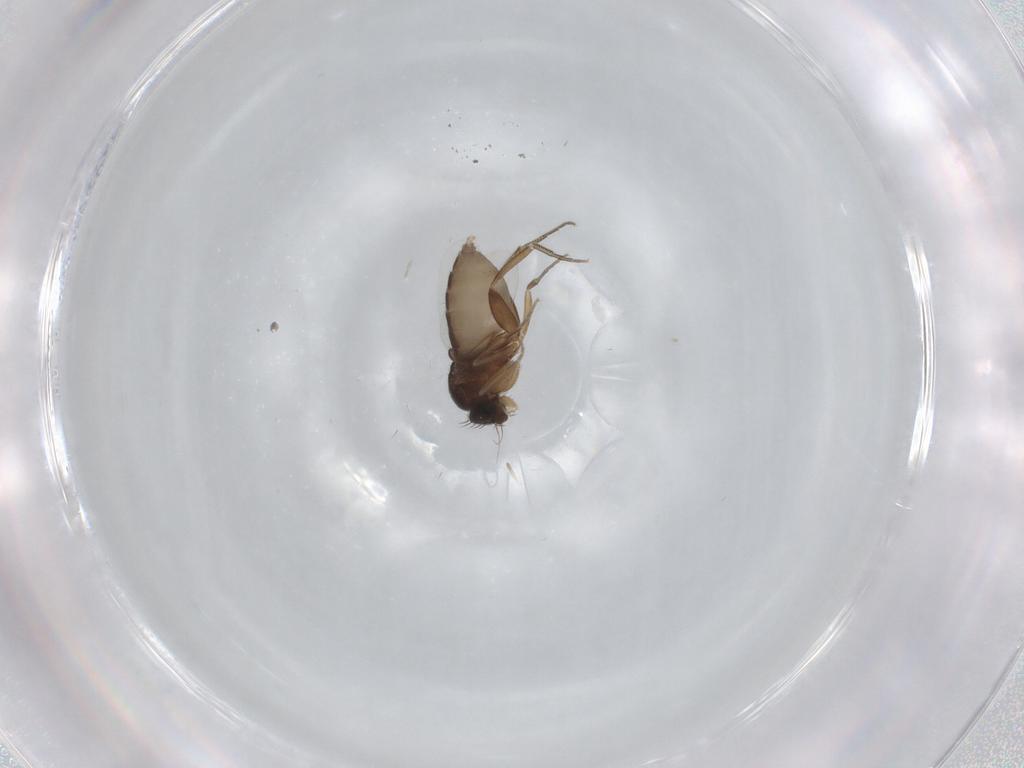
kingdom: Animalia
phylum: Arthropoda
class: Insecta
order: Diptera
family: Phoridae
